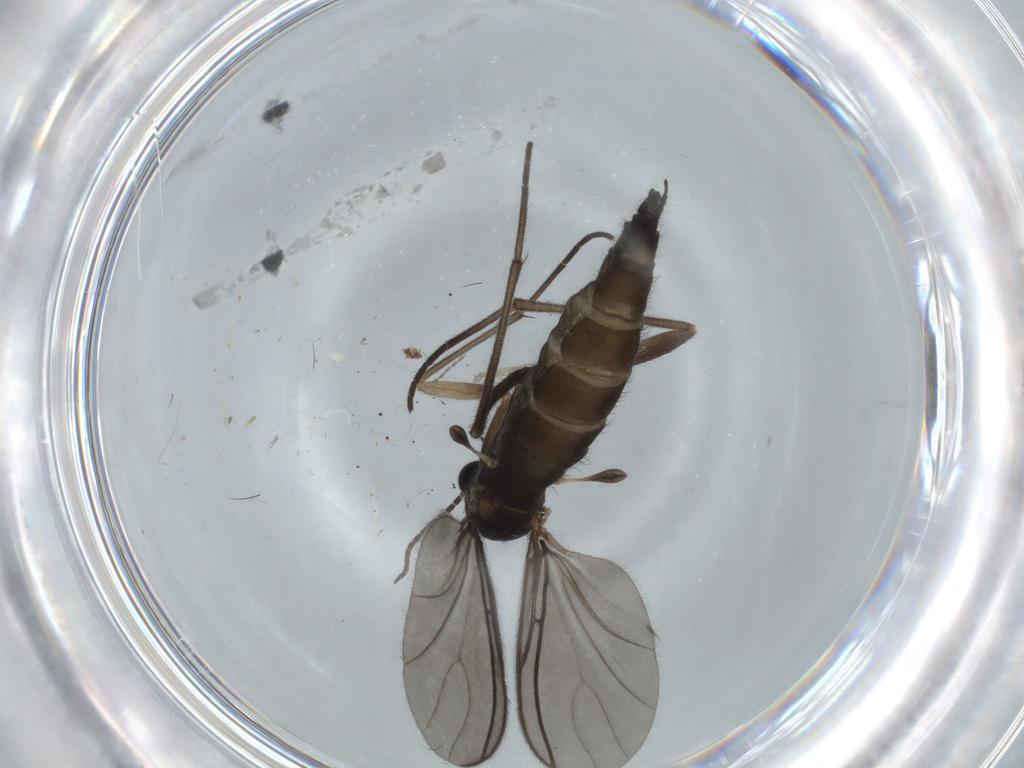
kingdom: Animalia
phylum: Arthropoda
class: Insecta
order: Diptera
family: Sciaridae
